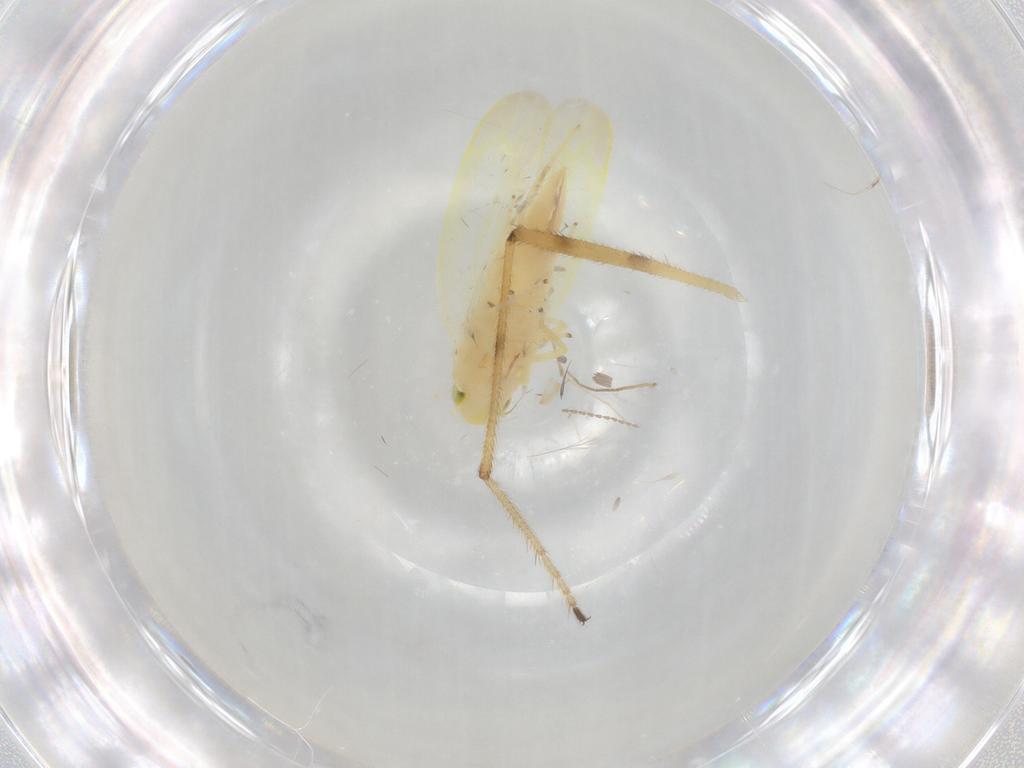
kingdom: Animalia
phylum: Arthropoda
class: Insecta
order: Hemiptera
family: Cicadellidae
